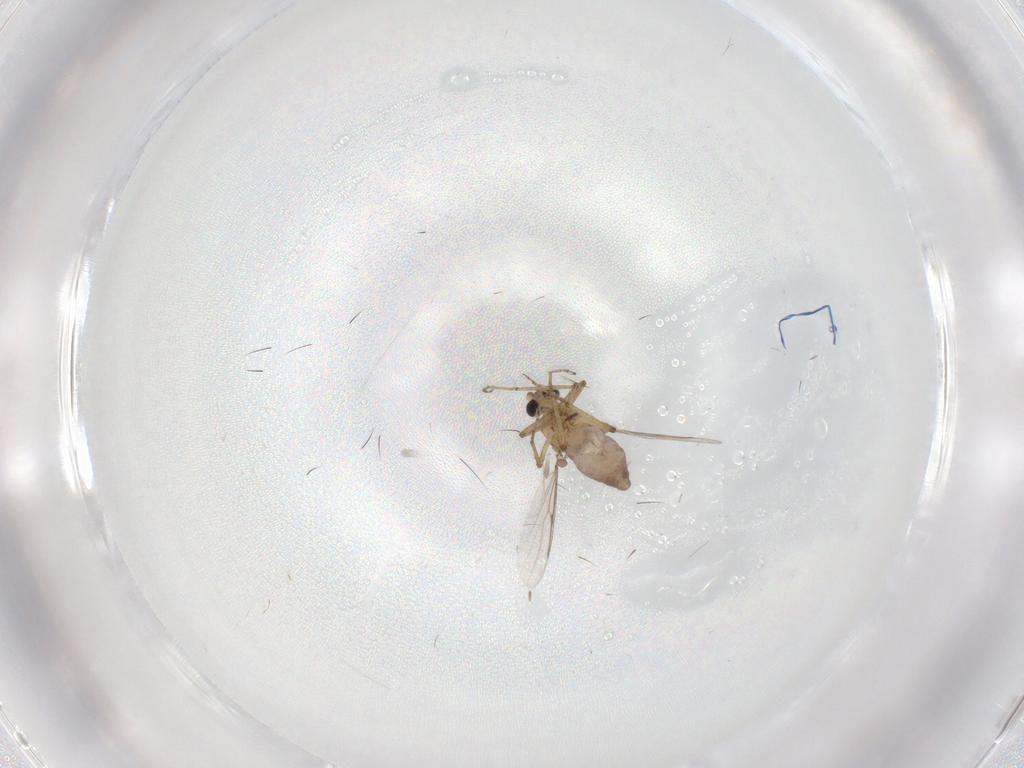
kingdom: Animalia
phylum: Arthropoda
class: Insecta
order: Diptera
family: Ceratopogonidae
